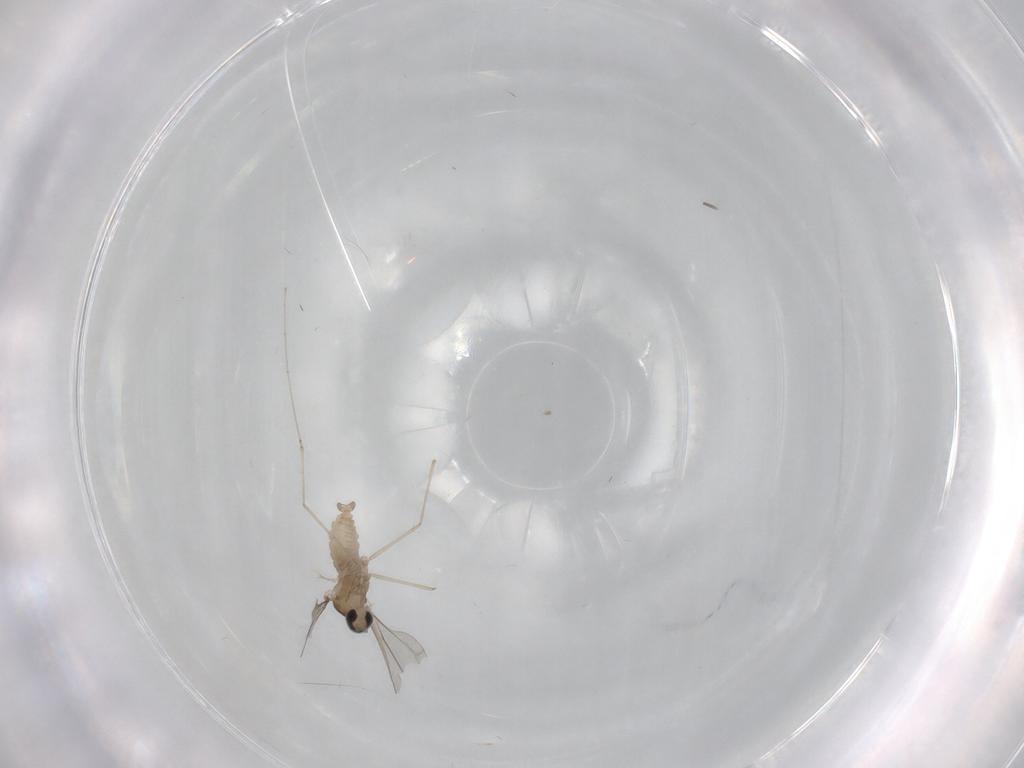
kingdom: Animalia
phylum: Arthropoda
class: Insecta
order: Diptera
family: Cecidomyiidae
